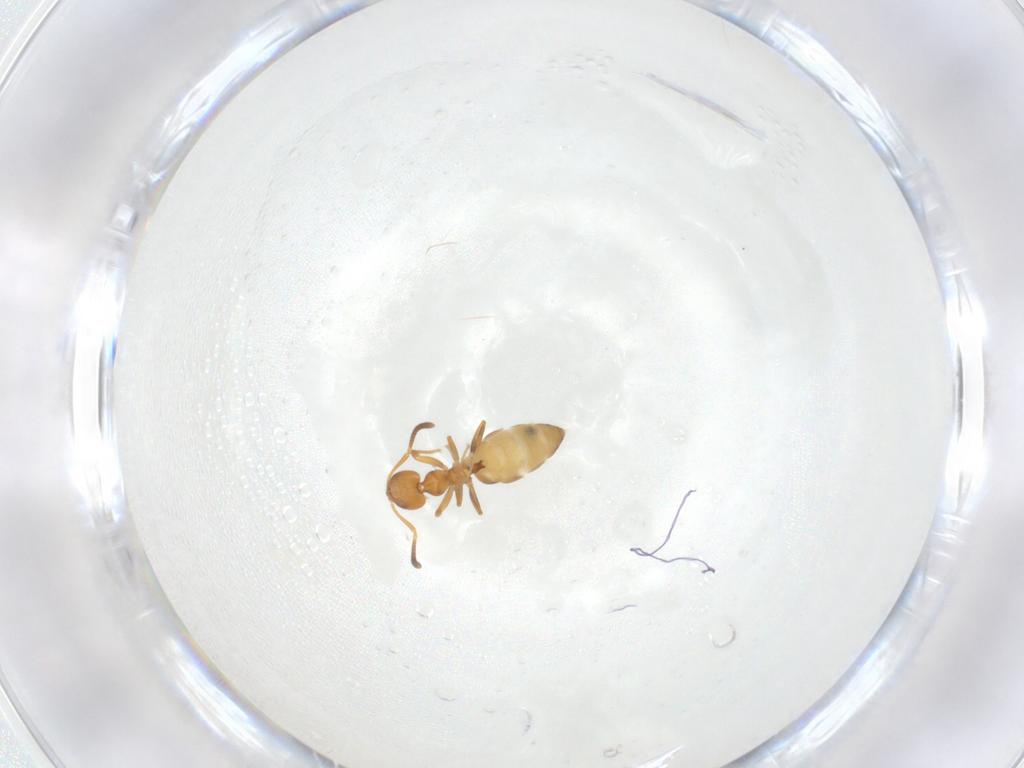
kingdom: Animalia
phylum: Arthropoda
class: Insecta
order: Hymenoptera
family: Formicidae
